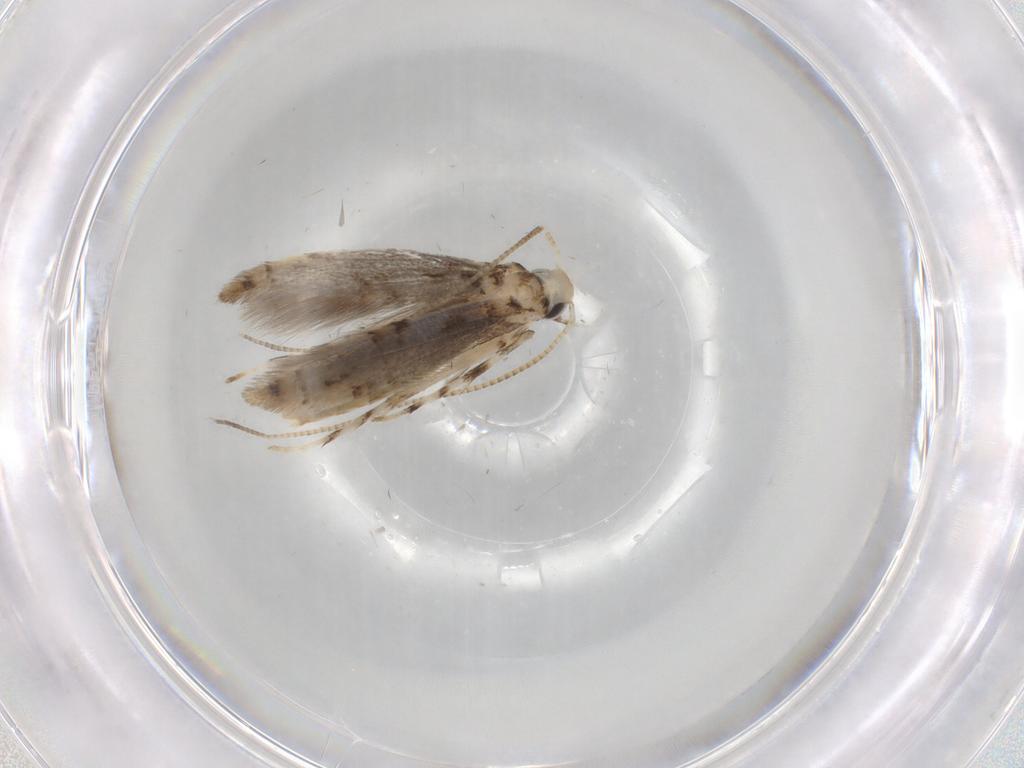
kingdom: Animalia
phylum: Arthropoda
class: Insecta
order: Lepidoptera
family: Gracillariidae
